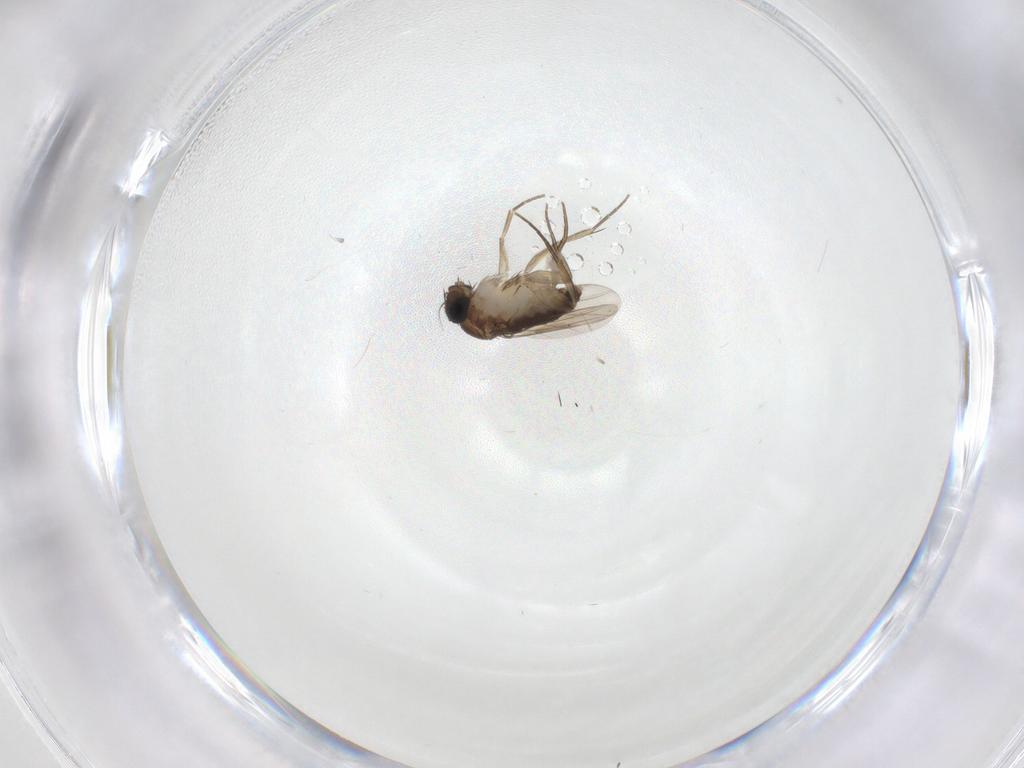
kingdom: Animalia
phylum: Arthropoda
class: Insecta
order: Diptera
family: Phoridae
